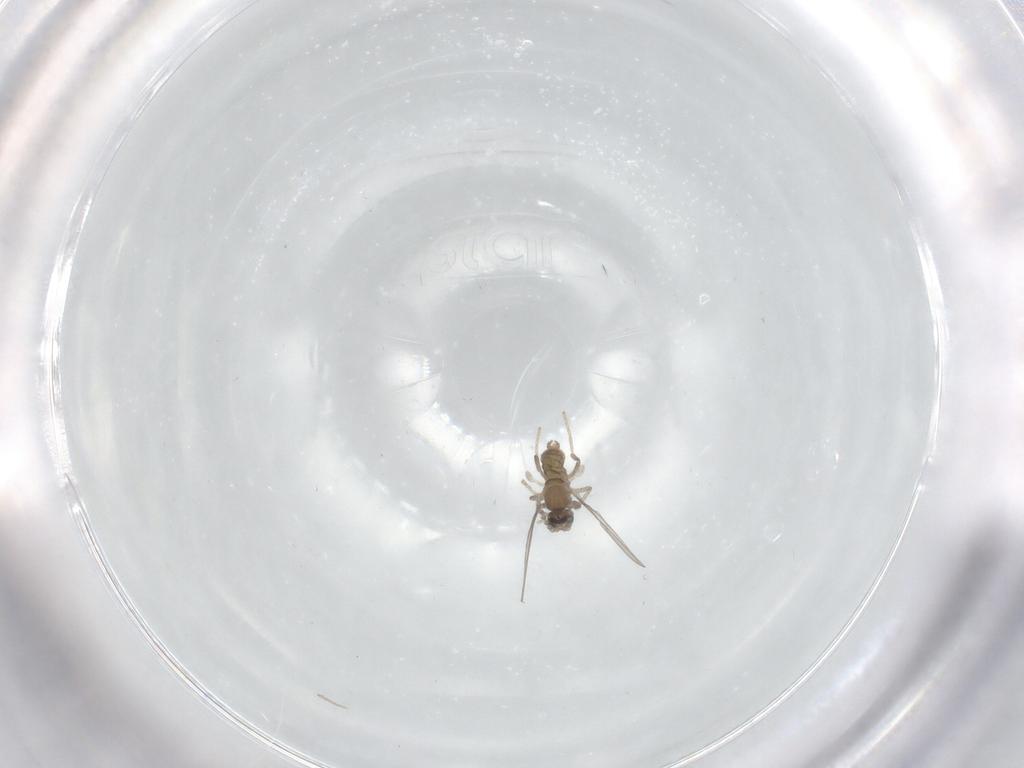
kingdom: Animalia
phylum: Arthropoda
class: Insecta
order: Diptera
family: Cecidomyiidae
